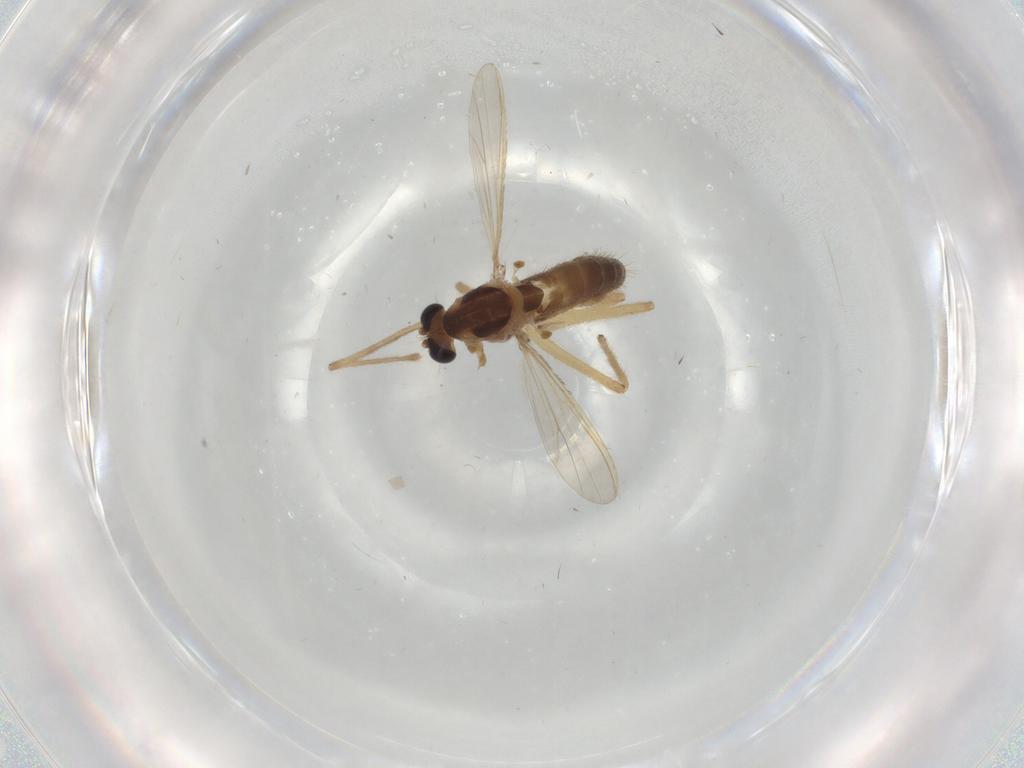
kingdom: Animalia
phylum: Arthropoda
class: Insecta
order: Diptera
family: Chironomidae
